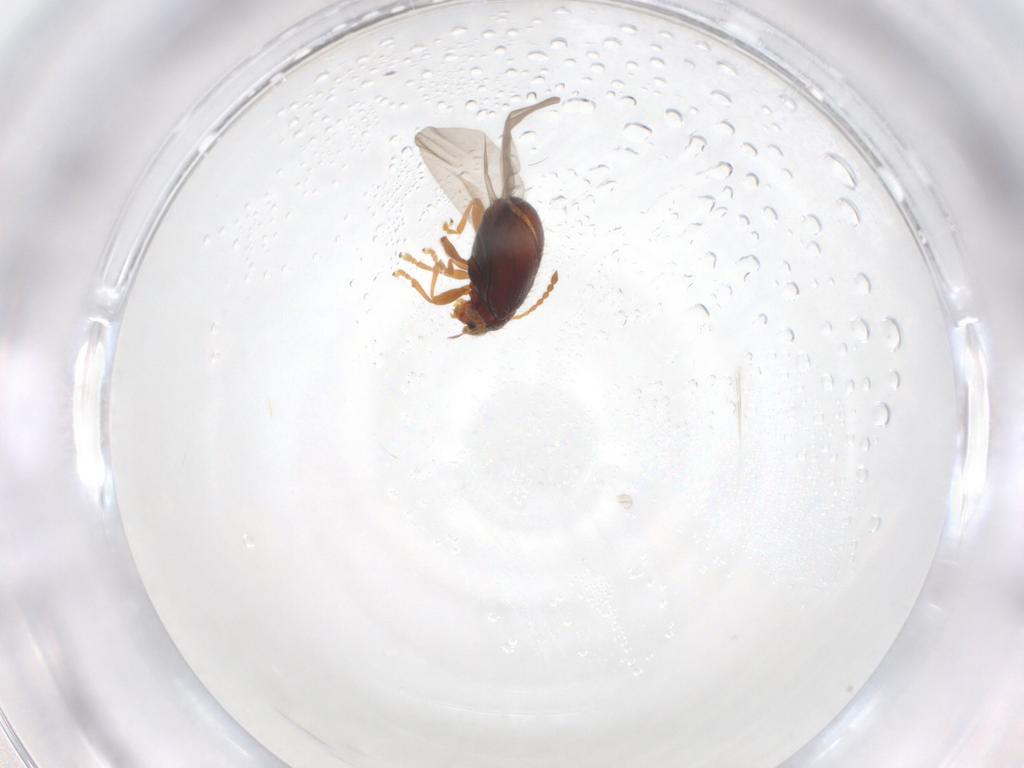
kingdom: Animalia
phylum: Arthropoda
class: Insecta
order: Coleoptera
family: Chrysomelidae
